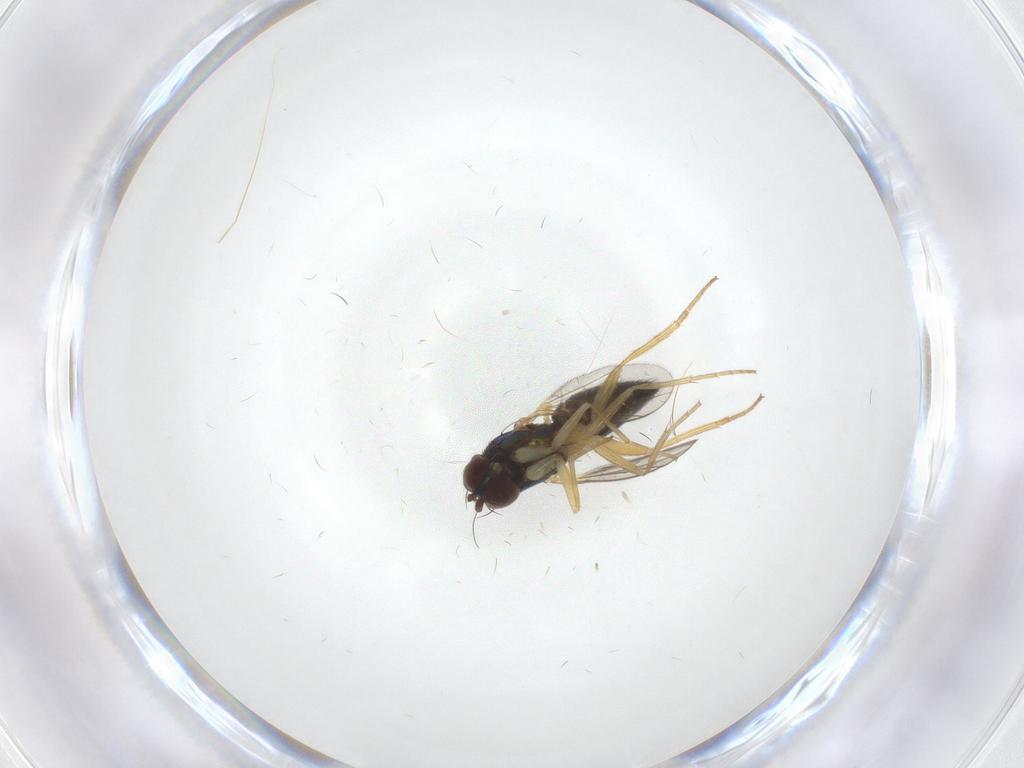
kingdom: Animalia
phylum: Arthropoda
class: Insecta
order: Diptera
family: Dolichopodidae
